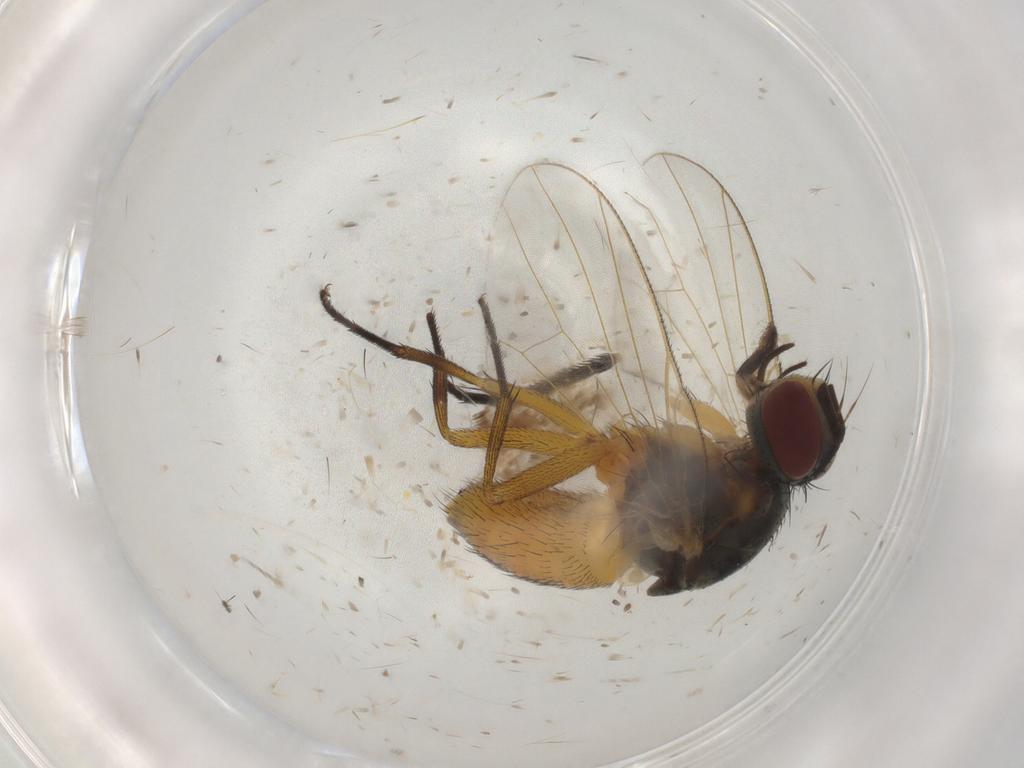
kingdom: Animalia
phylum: Arthropoda
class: Insecta
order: Diptera
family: Muscidae
